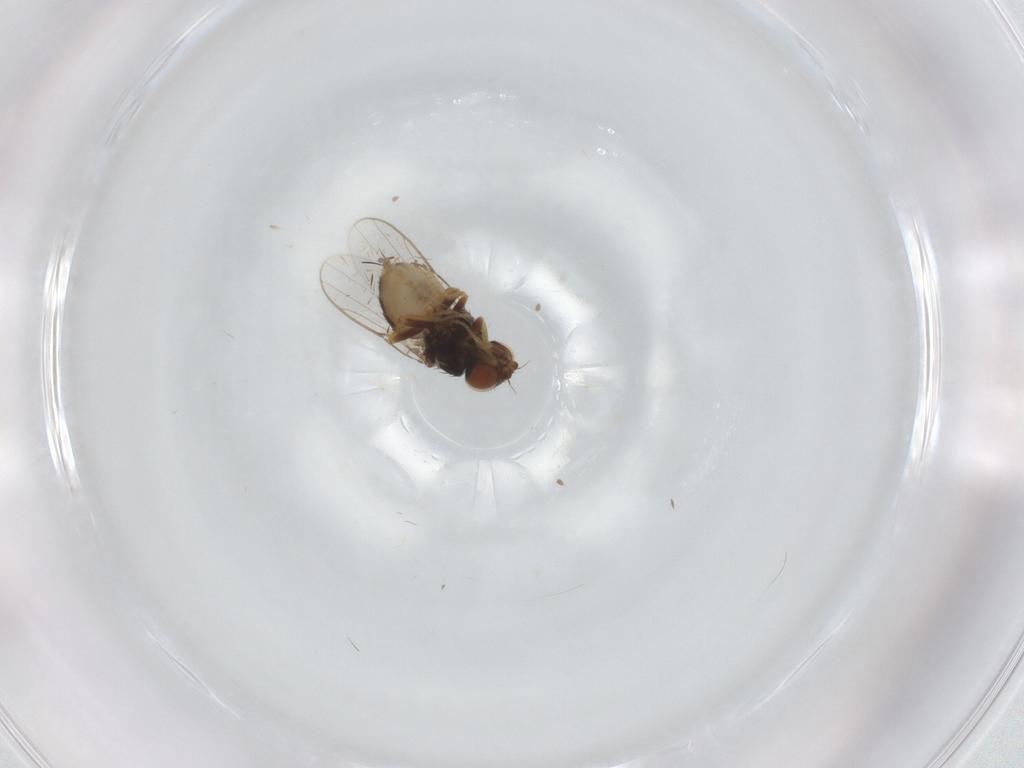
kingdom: Animalia
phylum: Arthropoda
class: Insecta
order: Diptera
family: Chloropidae
